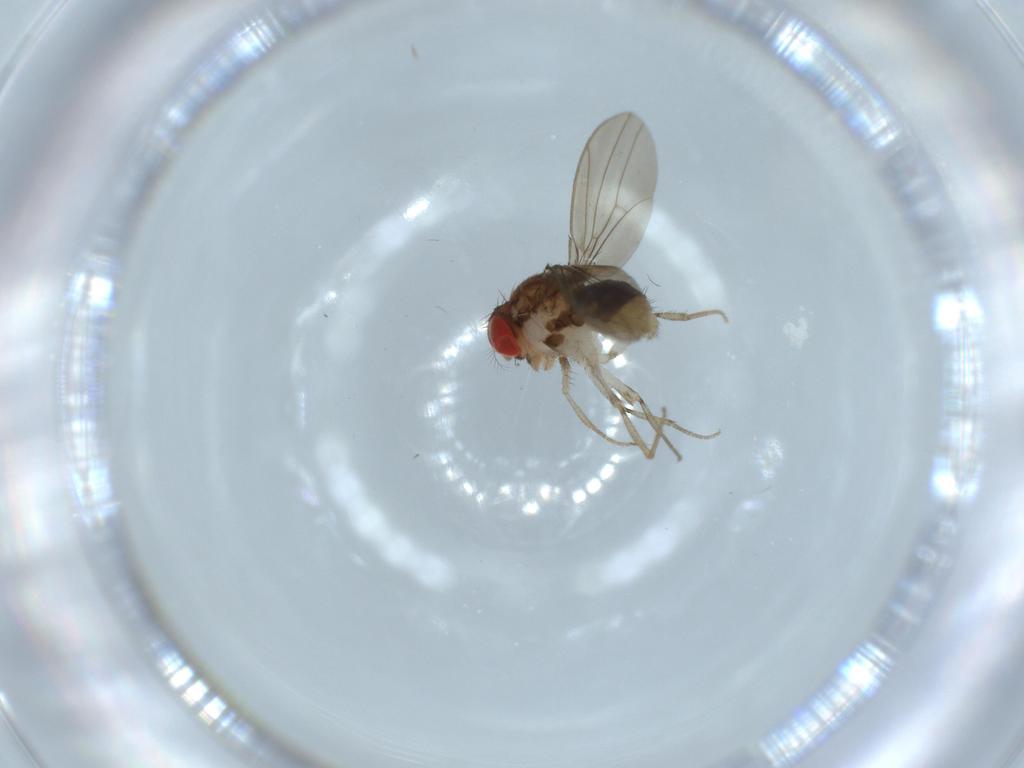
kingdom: Animalia
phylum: Arthropoda
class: Insecta
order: Diptera
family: Drosophilidae
